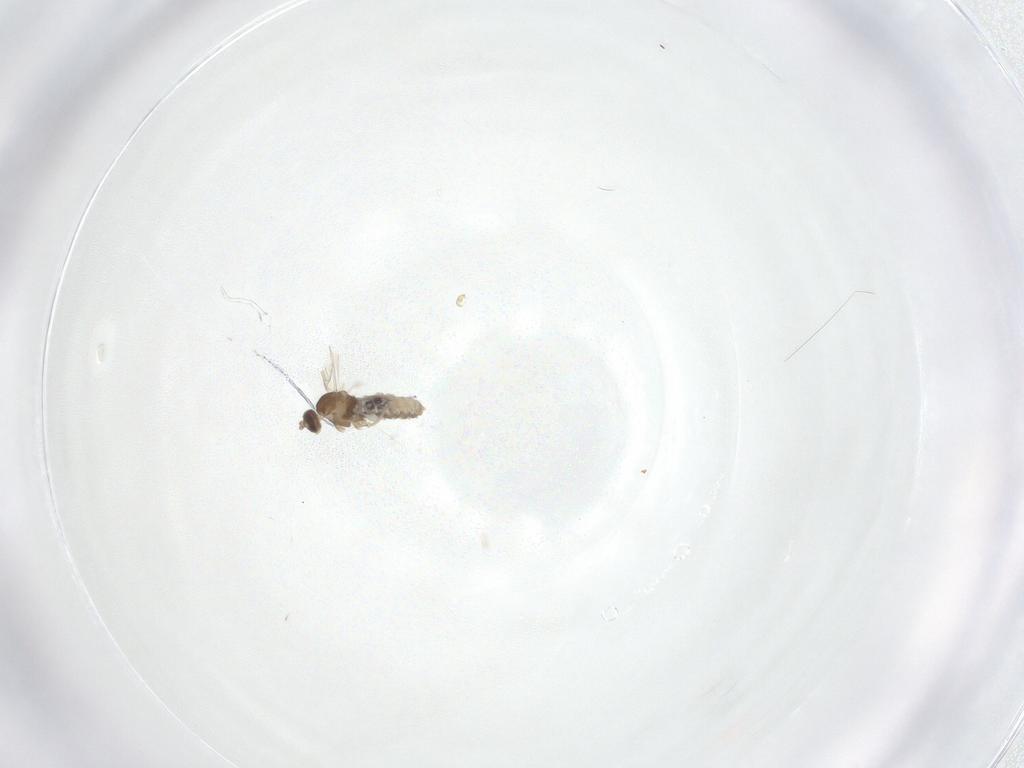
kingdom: Animalia
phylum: Arthropoda
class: Insecta
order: Diptera
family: Cecidomyiidae
